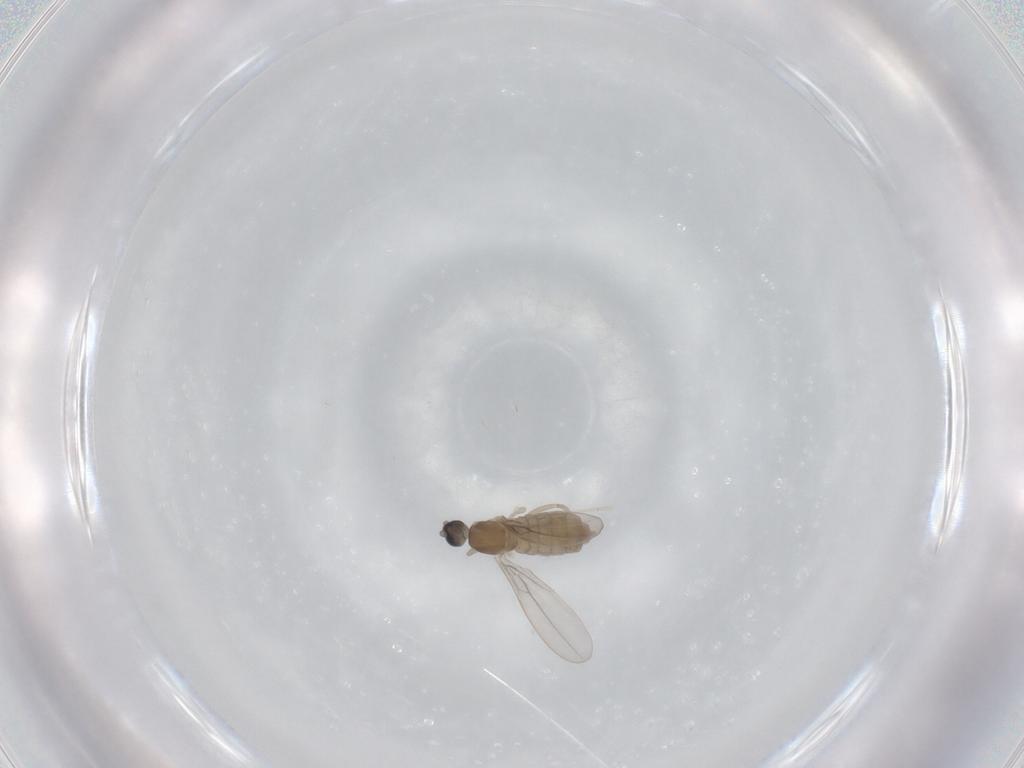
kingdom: Animalia
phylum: Arthropoda
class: Insecta
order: Diptera
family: Cecidomyiidae
